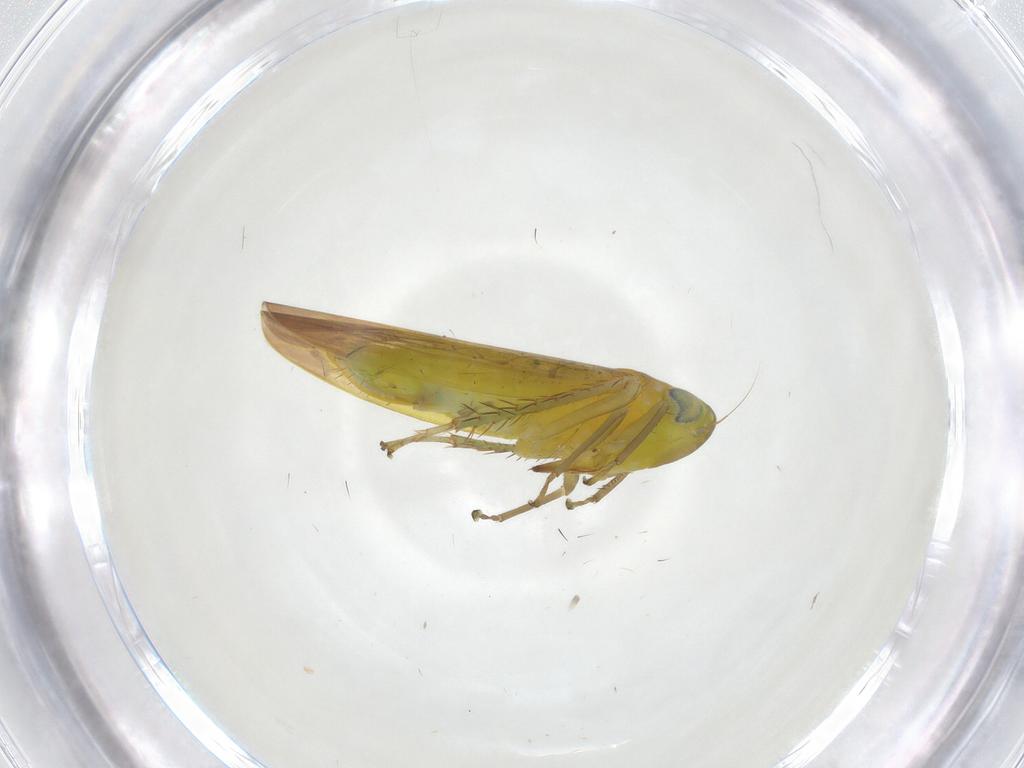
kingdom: Animalia
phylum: Arthropoda
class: Insecta
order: Hemiptera
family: Cicadellidae
